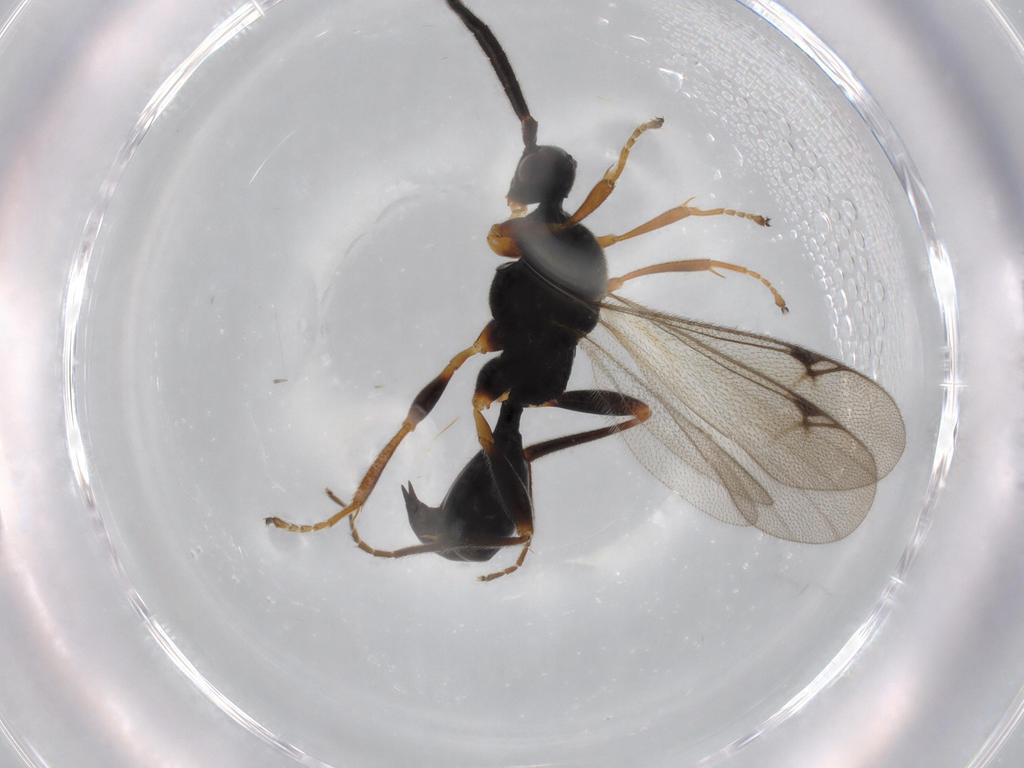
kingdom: Animalia
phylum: Arthropoda
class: Insecta
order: Hymenoptera
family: Proctotrupidae
